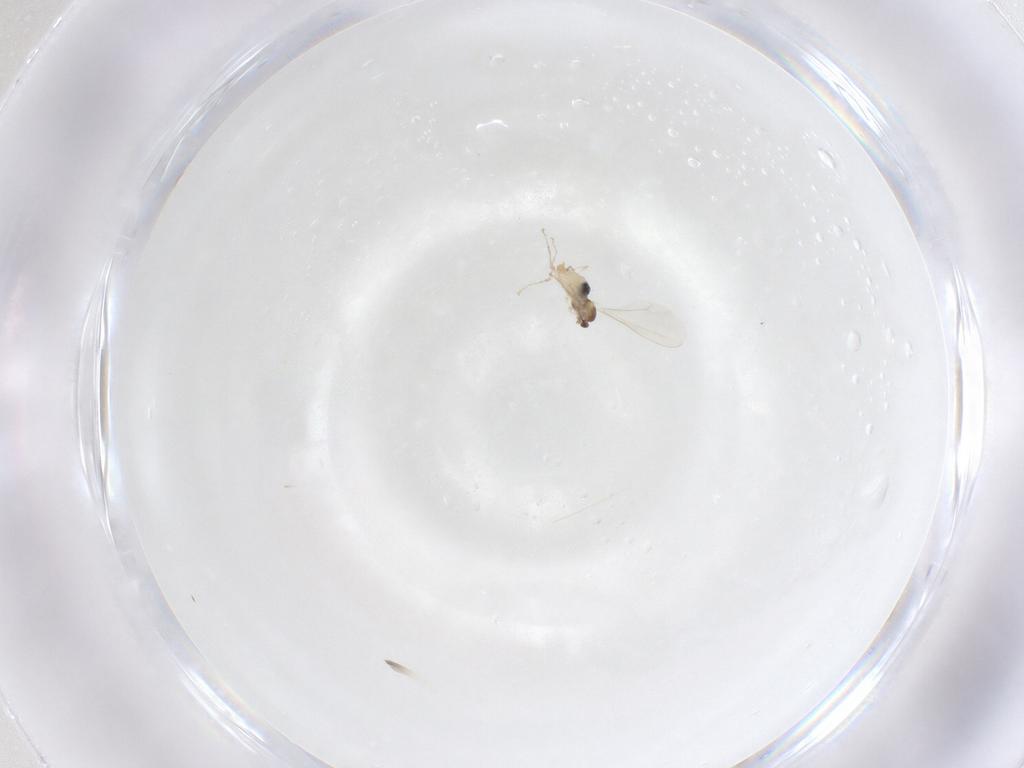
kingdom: Animalia
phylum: Arthropoda
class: Insecta
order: Diptera
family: Cecidomyiidae
